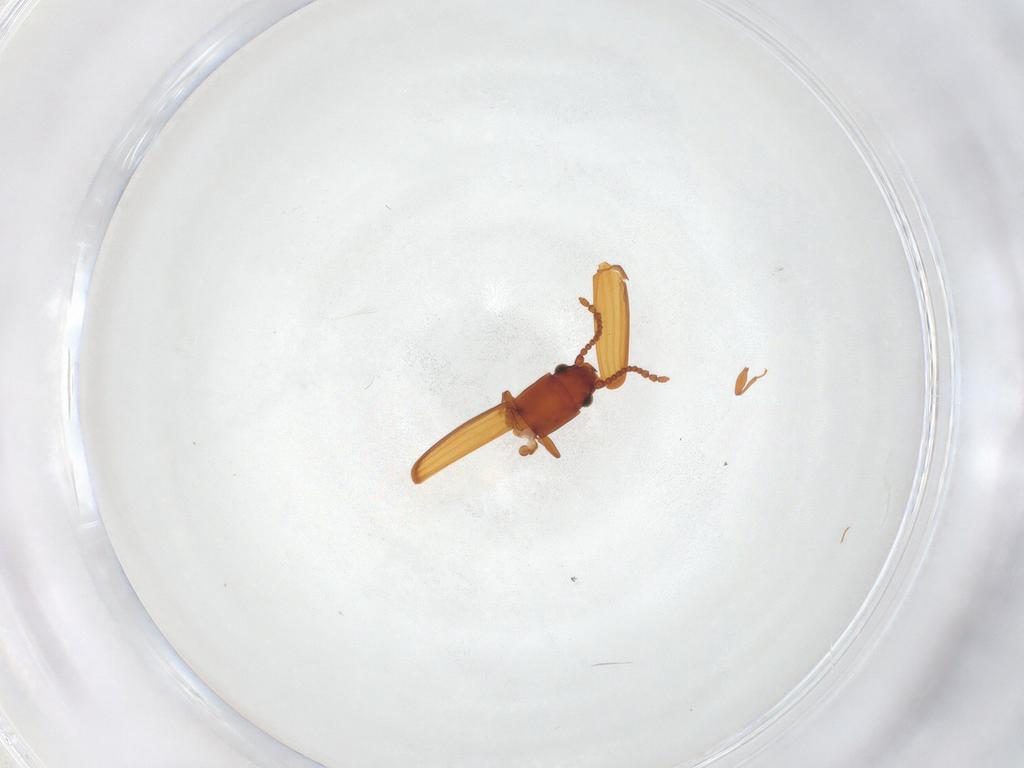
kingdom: Animalia
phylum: Arthropoda
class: Insecta
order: Coleoptera
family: Laemophloeidae
